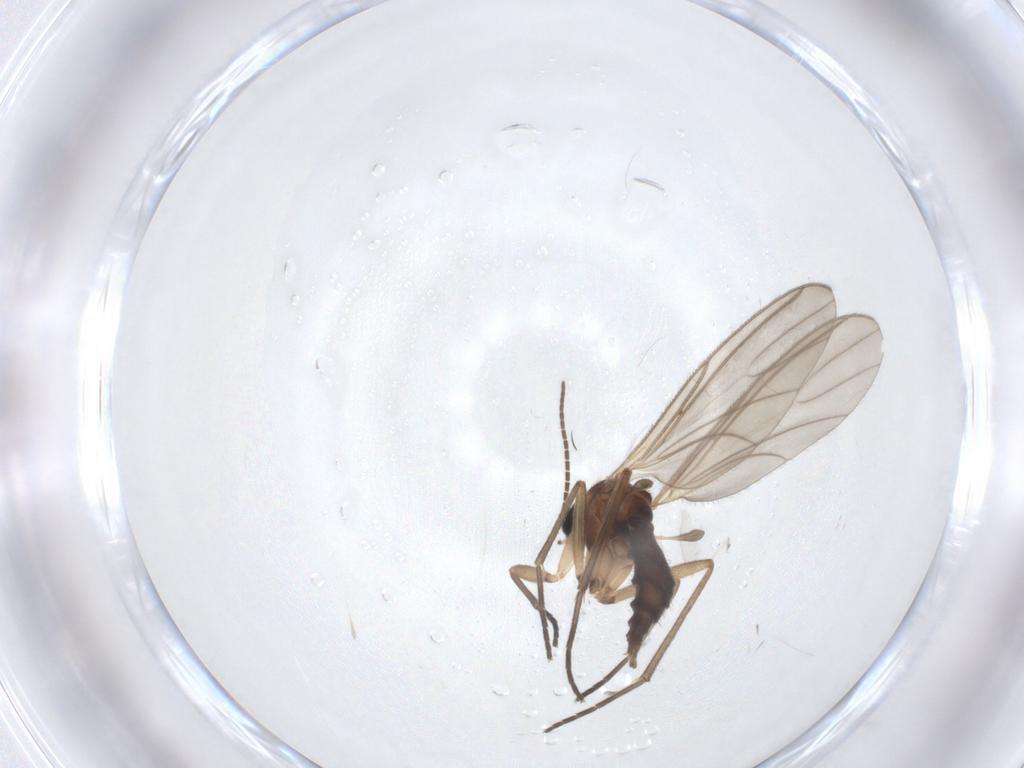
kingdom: Animalia
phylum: Arthropoda
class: Insecta
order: Diptera
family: Sciaridae
